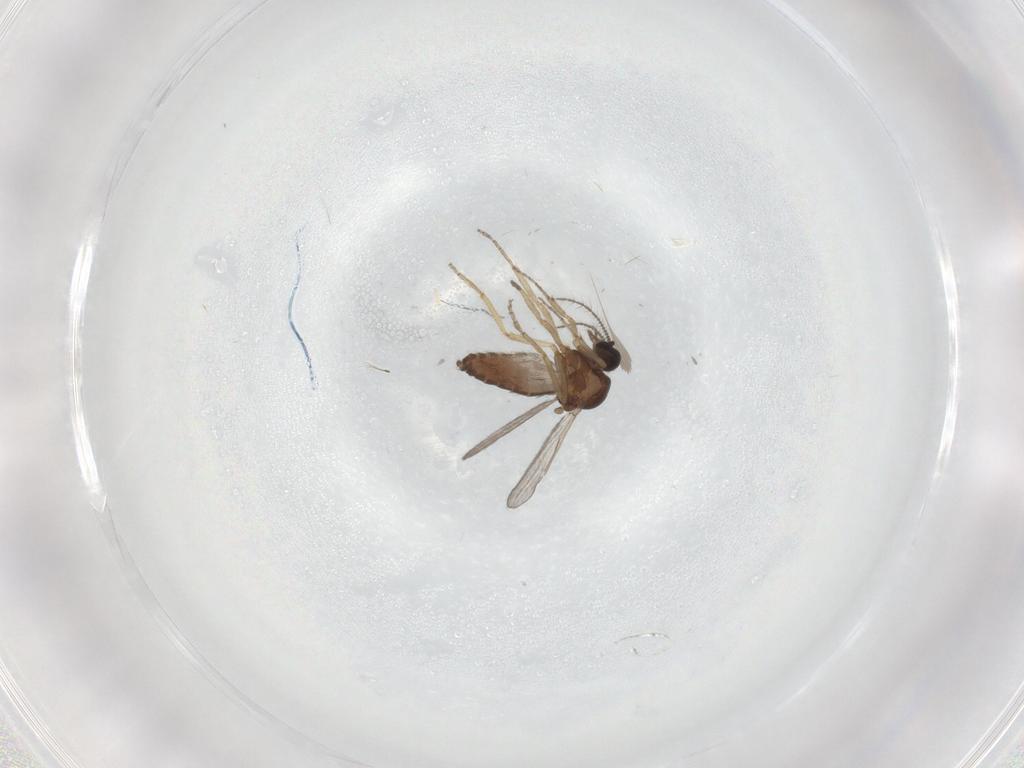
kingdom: Animalia
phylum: Arthropoda
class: Insecta
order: Diptera
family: Ceratopogonidae
